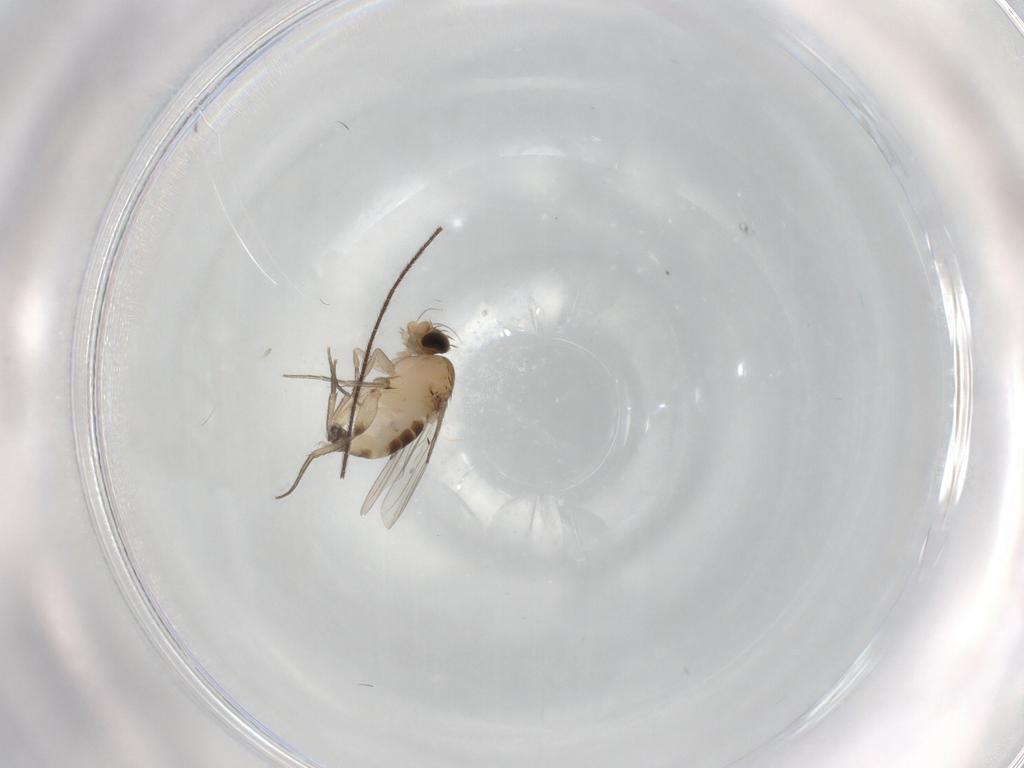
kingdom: Animalia
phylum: Arthropoda
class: Insecta
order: Diptera
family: Phoridae
